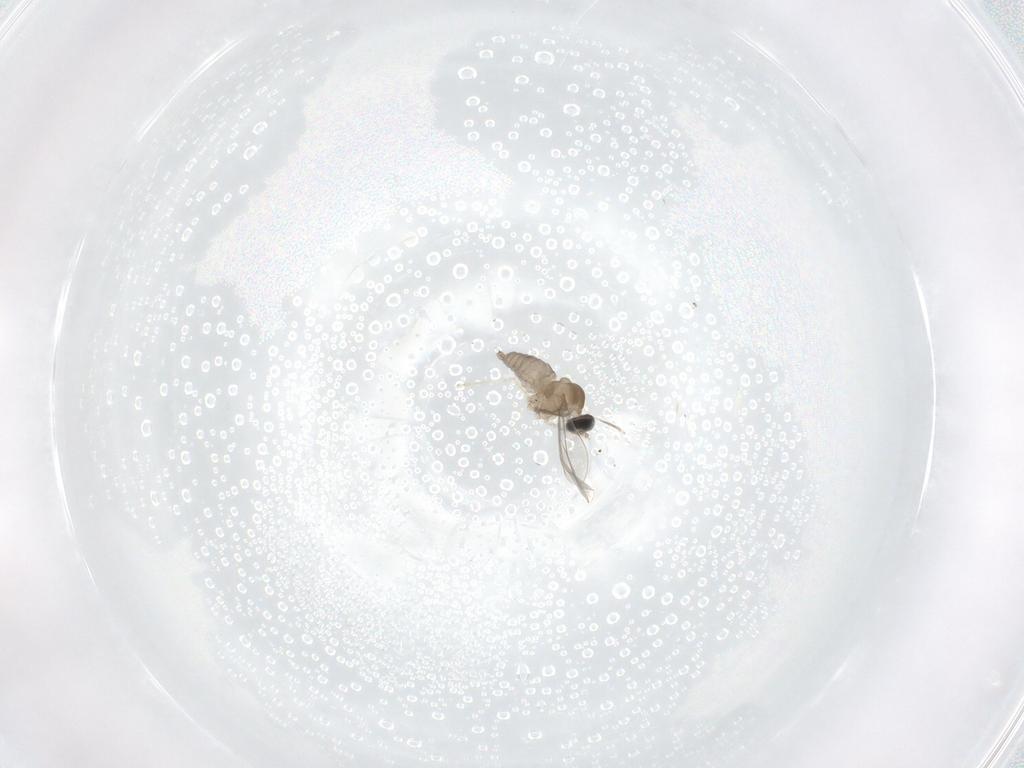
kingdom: Animalia
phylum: Arthropoda
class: Insecta
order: Diptera
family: Cecidomyiidae
